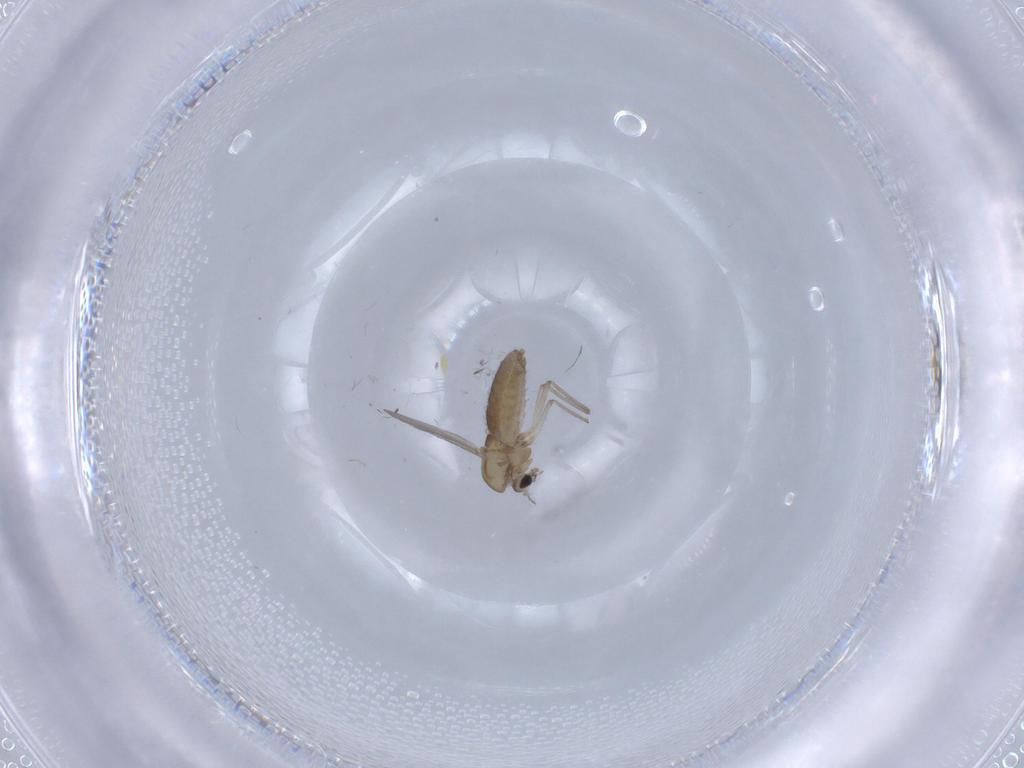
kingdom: Animalia
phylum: Arthropoda
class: Insecta
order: Diptera
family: Chironomidae
